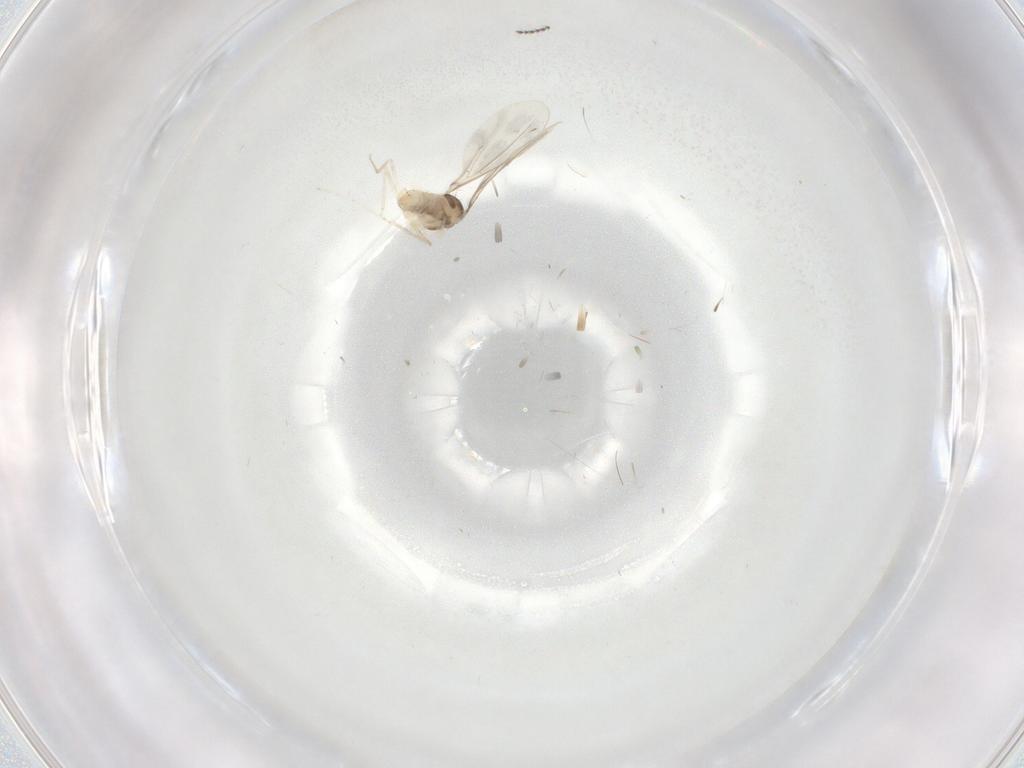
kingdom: Animalia
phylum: Arthropoda
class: Insecta
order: Diptera
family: Cecidomyiidae
